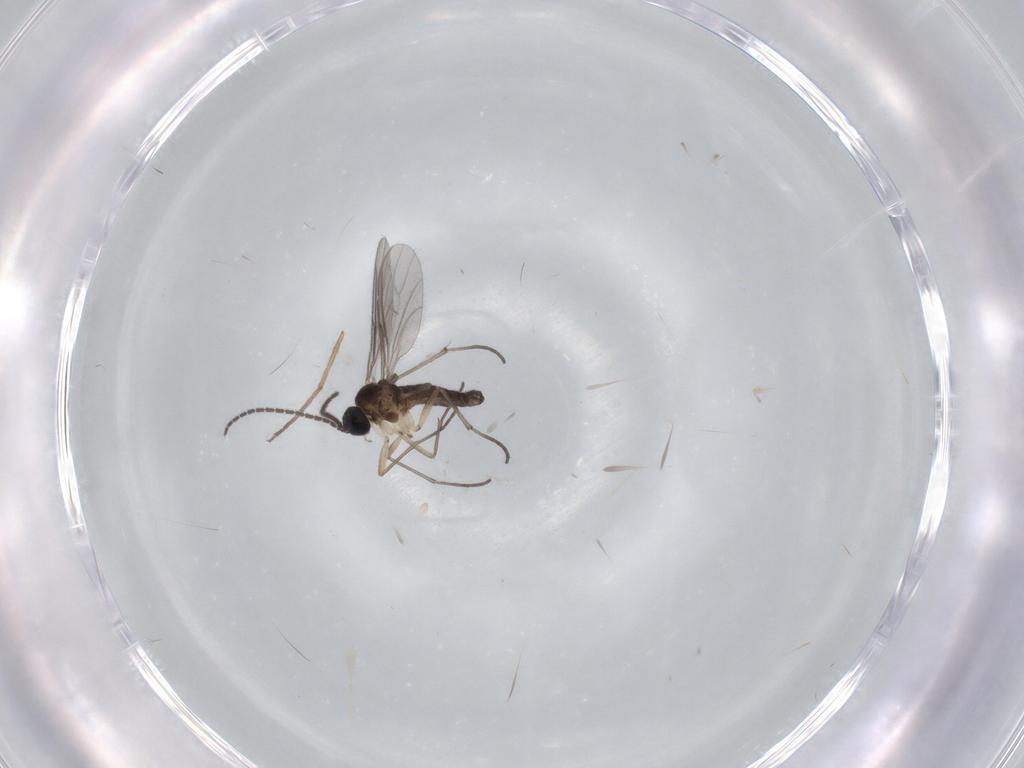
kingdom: Animalia
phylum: Arthropoda
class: Insecta
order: Diptera
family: Sciaridae
